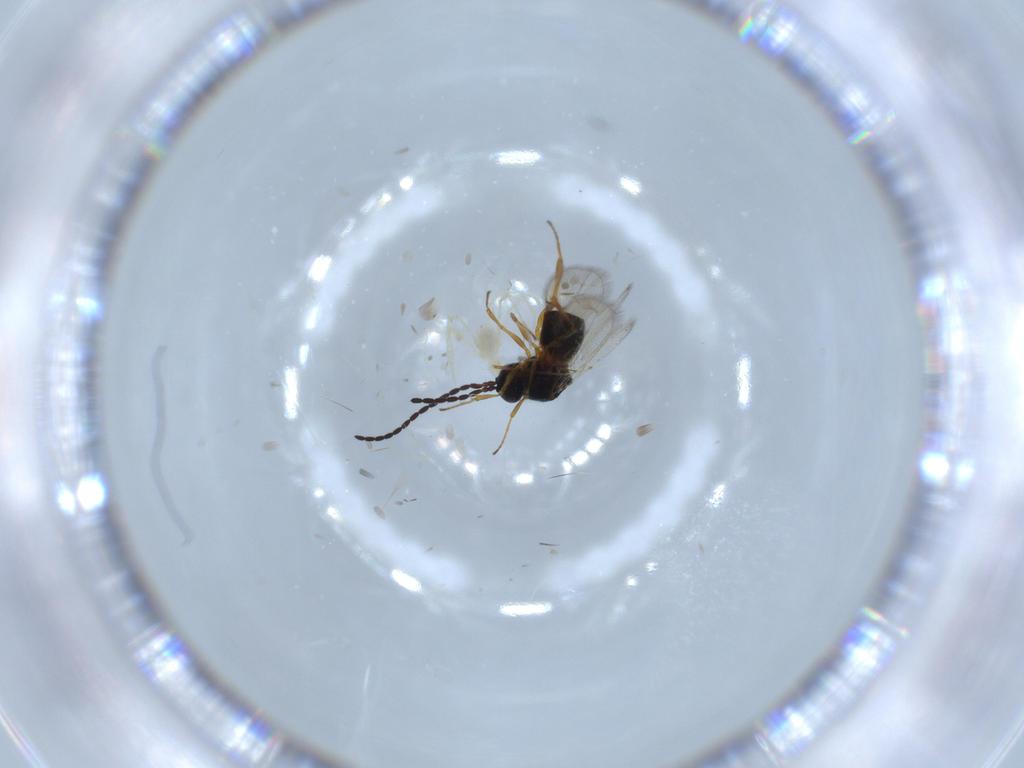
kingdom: Animalia
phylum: Arthropoda
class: Insecta
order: Hymenoptera
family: Figitidae
